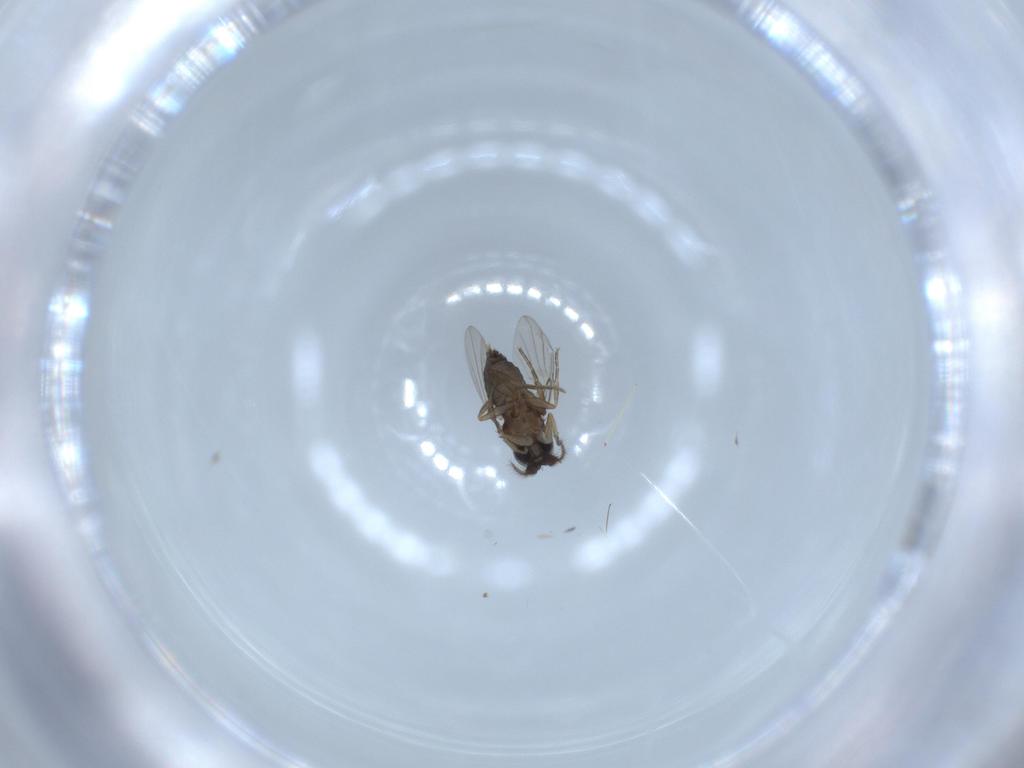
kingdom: Animalia
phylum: Arthropoda
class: Insecta
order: Diptera
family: Phoridae
